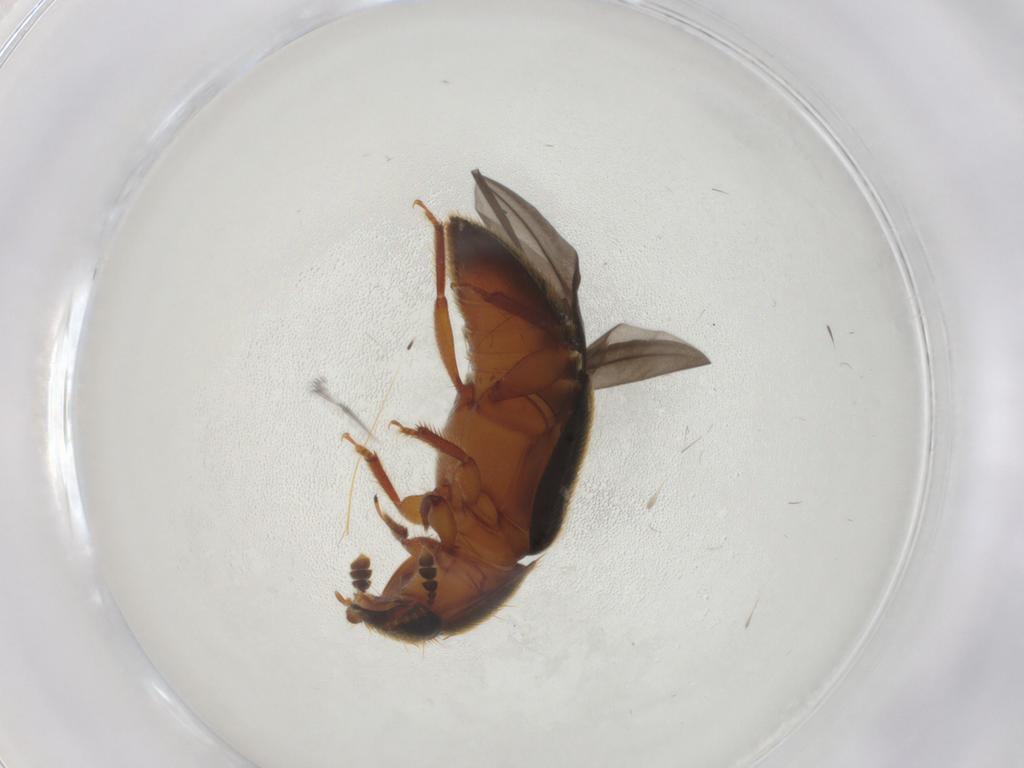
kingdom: Animalia
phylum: Arthropoda
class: Insecta
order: Coleoptera
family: Nitidulidae
